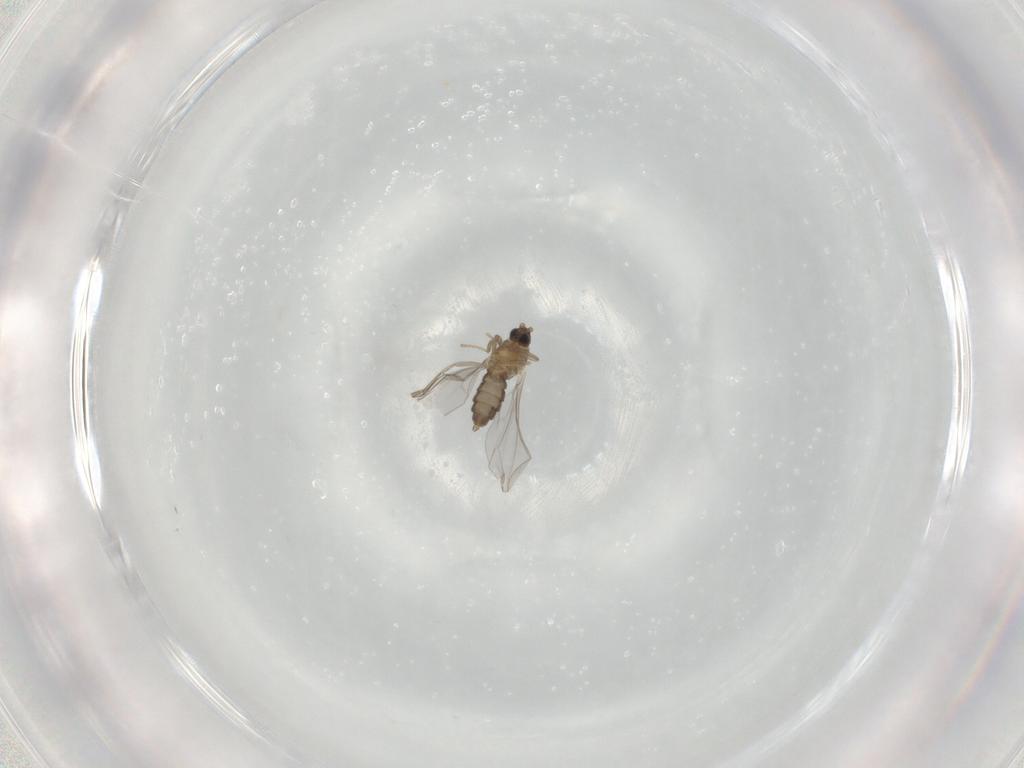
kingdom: Animalia
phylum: Arthropoda
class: Insecta
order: Diptera
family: Cecidomyiidae
